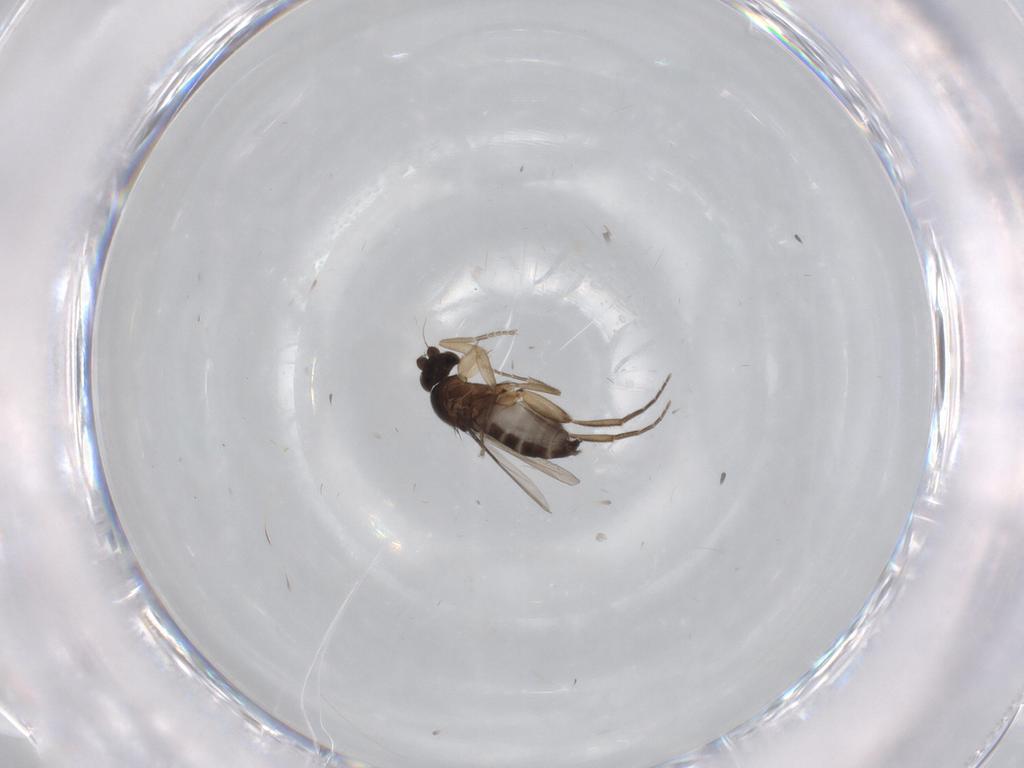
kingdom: Animalia
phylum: Arthropoda
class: Insecta
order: Diptera
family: Phoridae
